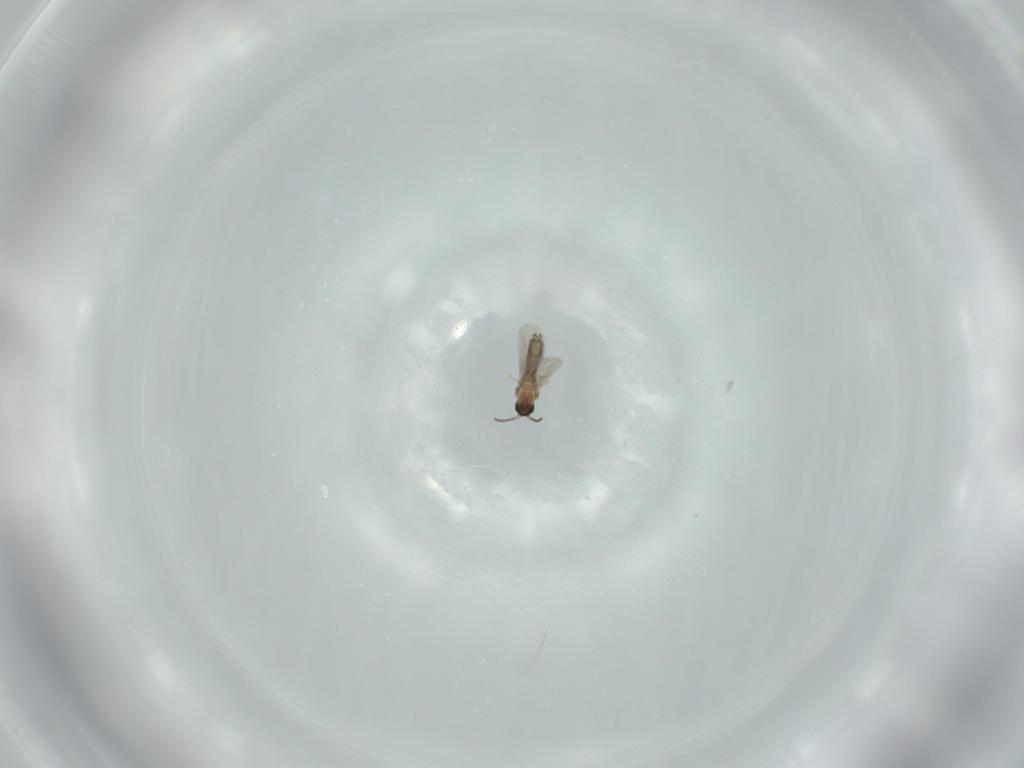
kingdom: Animalia
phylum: Arthropoda
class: Insecta
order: Diptera
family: Cecidomyiidae
